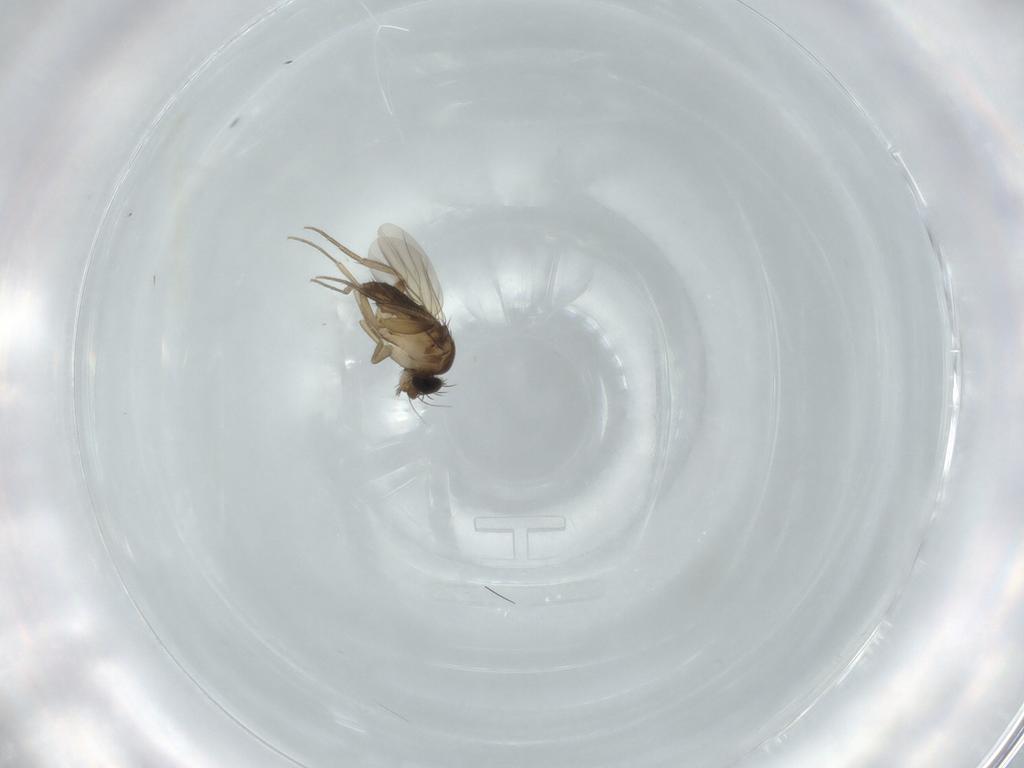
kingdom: Animalia
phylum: Arthropoda
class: Insecta
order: Diptera
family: Phoridae
